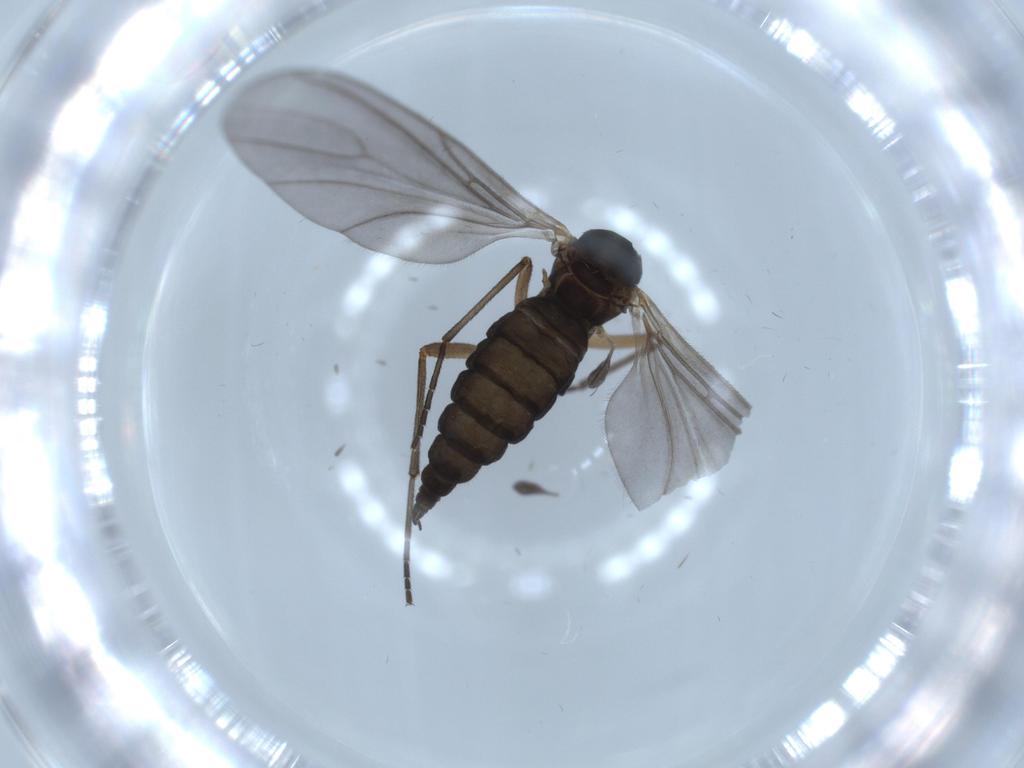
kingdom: Animalia
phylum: Arthropoda
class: Insecta
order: Diptera
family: Sciaridae
